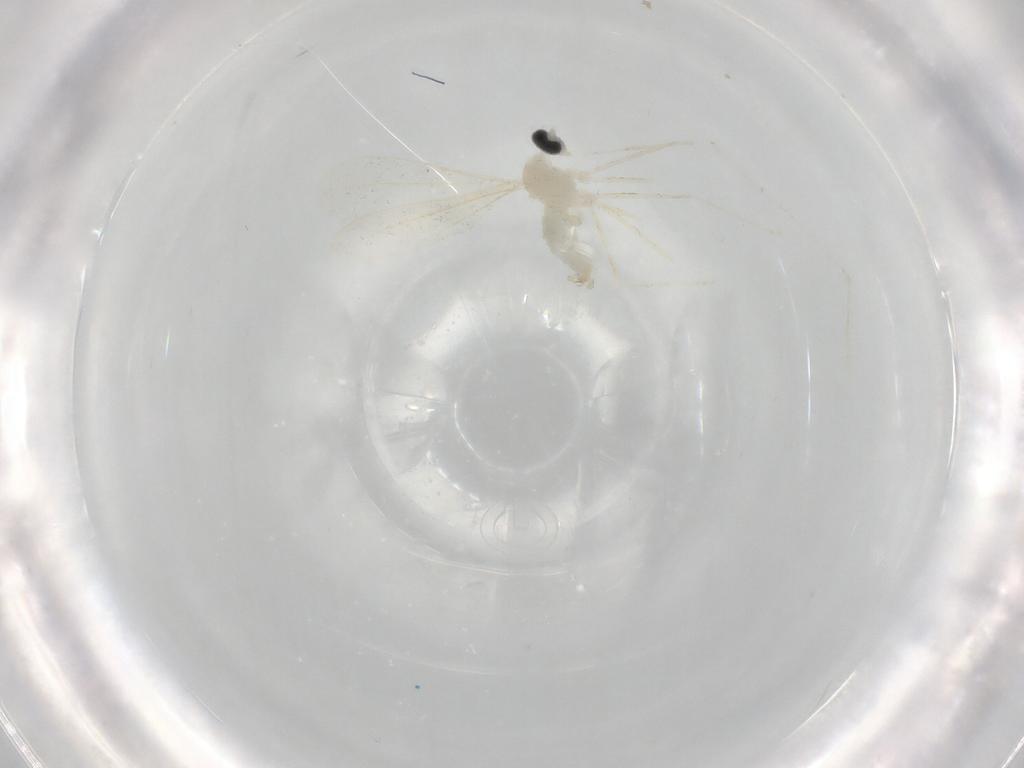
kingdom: Animalia
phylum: Arthropoda
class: Insecta
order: Diptera
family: Cecidomyiidae
